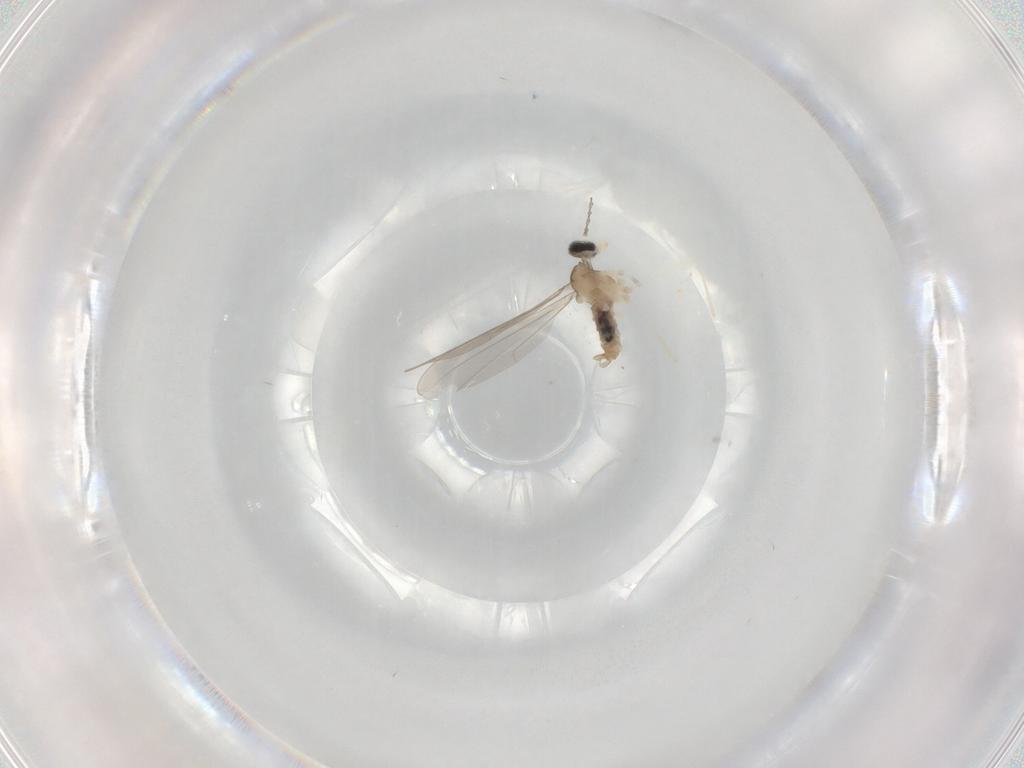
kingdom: Animalia
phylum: Arthropoda
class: Insecta
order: Diptera
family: Cecidomyiidae
